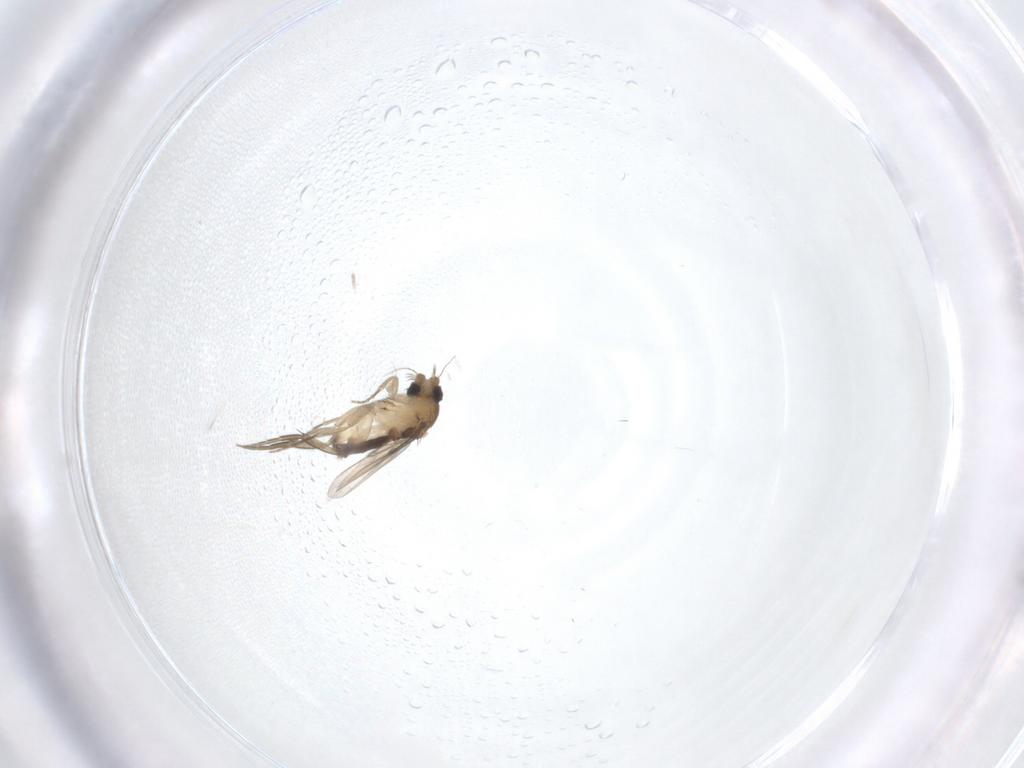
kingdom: Animalia
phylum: Arthropoda
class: Insecta
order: Diptera
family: Phoridae
